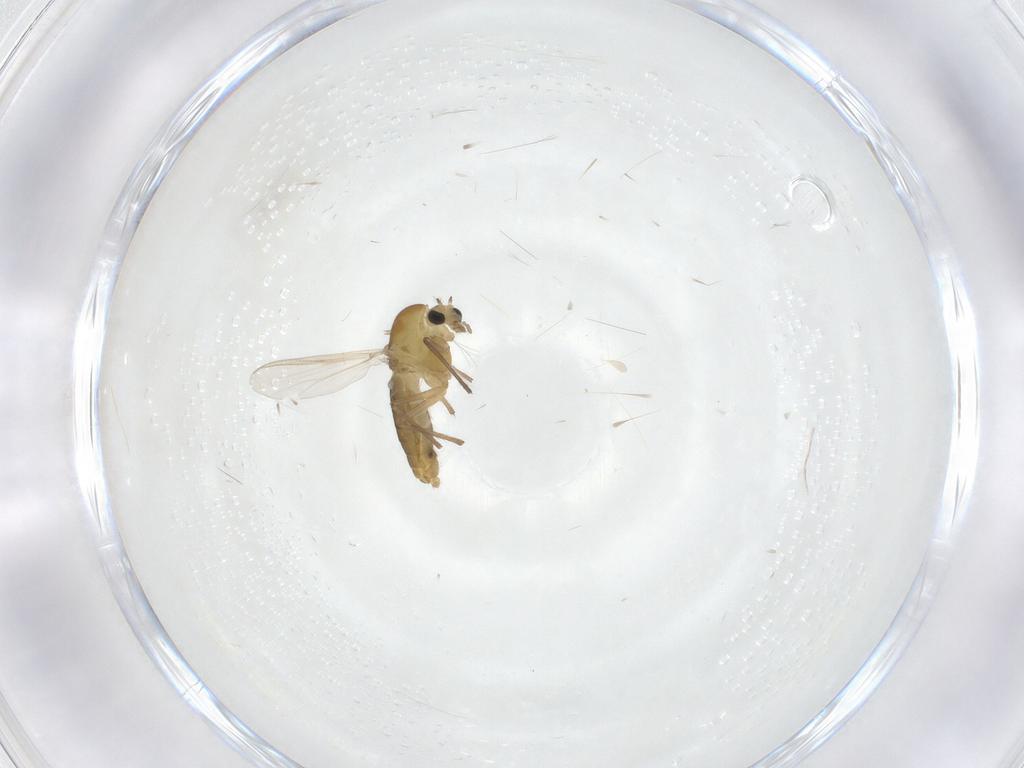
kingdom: Animalia
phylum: Arthropoda
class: Insecta
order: Diptera
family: Chironomidae
